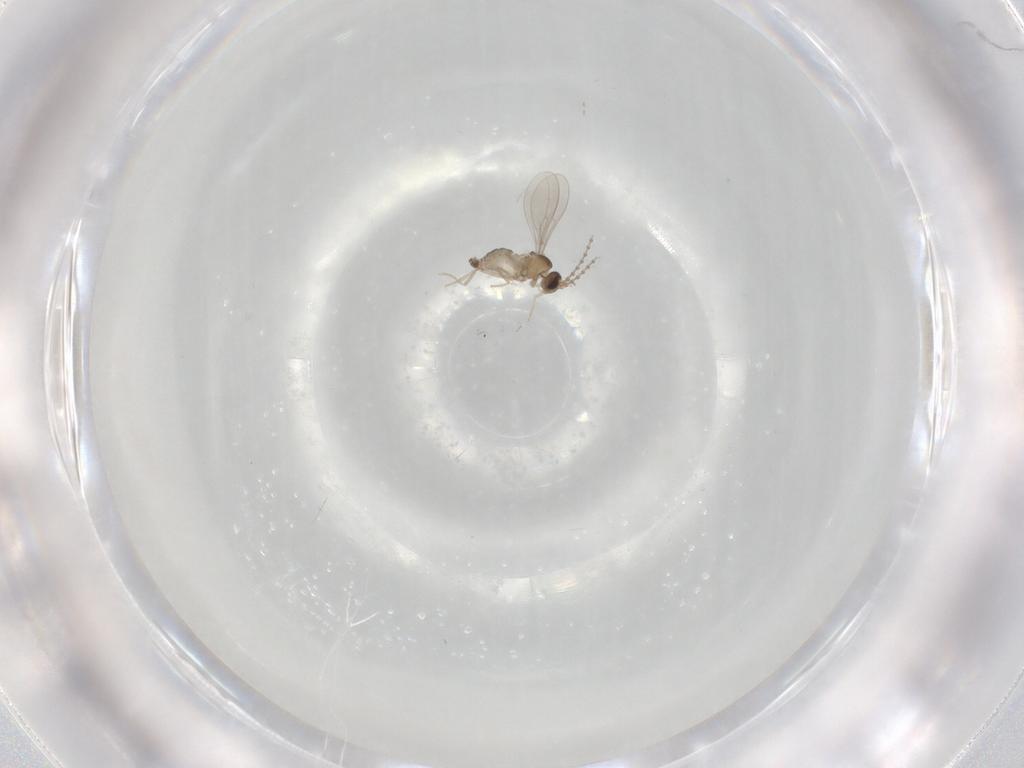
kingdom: Animalia
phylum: Arthropoda
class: Insecta
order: Diptera
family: Cecidomyiidae
